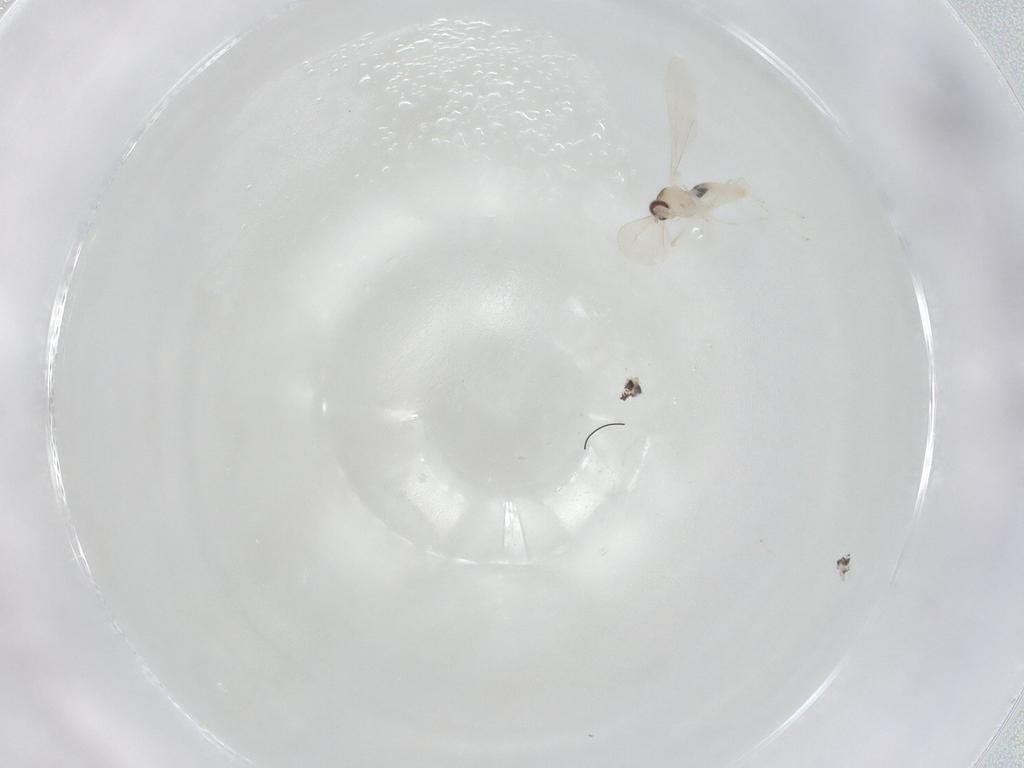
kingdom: Animalia
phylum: Arthropoda
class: Insecta
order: Diptera
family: Cecidomyiidae
